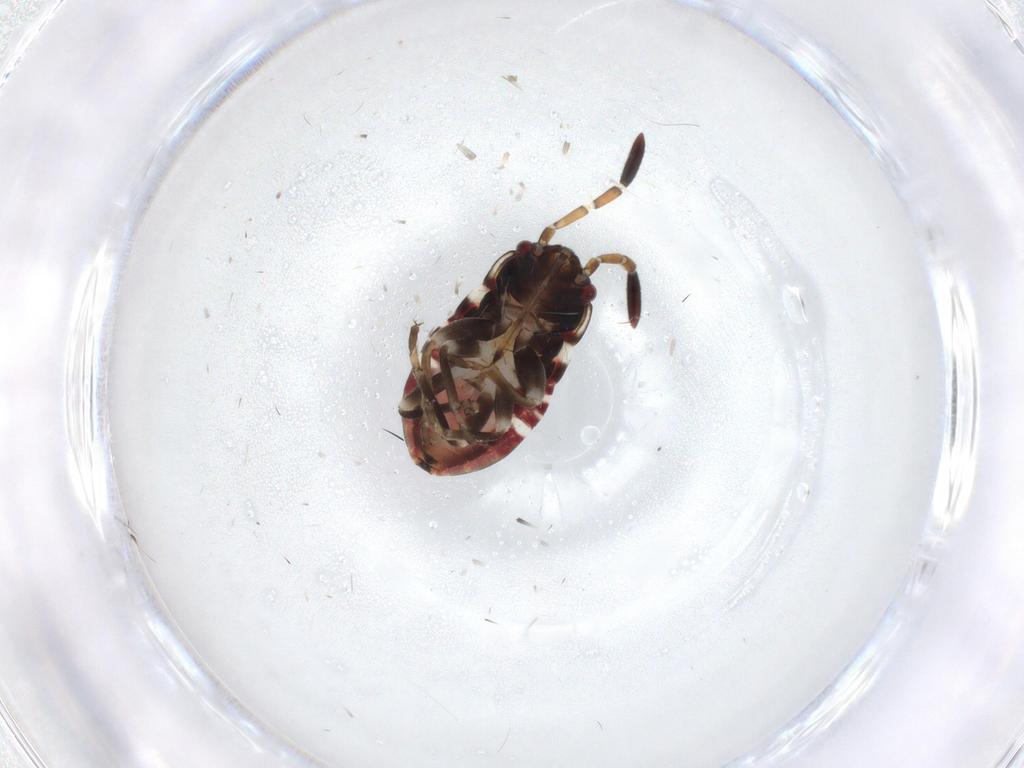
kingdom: Animalia
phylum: Arthropoda
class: Insecta
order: Hemiptera
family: Rhyparochromidae
